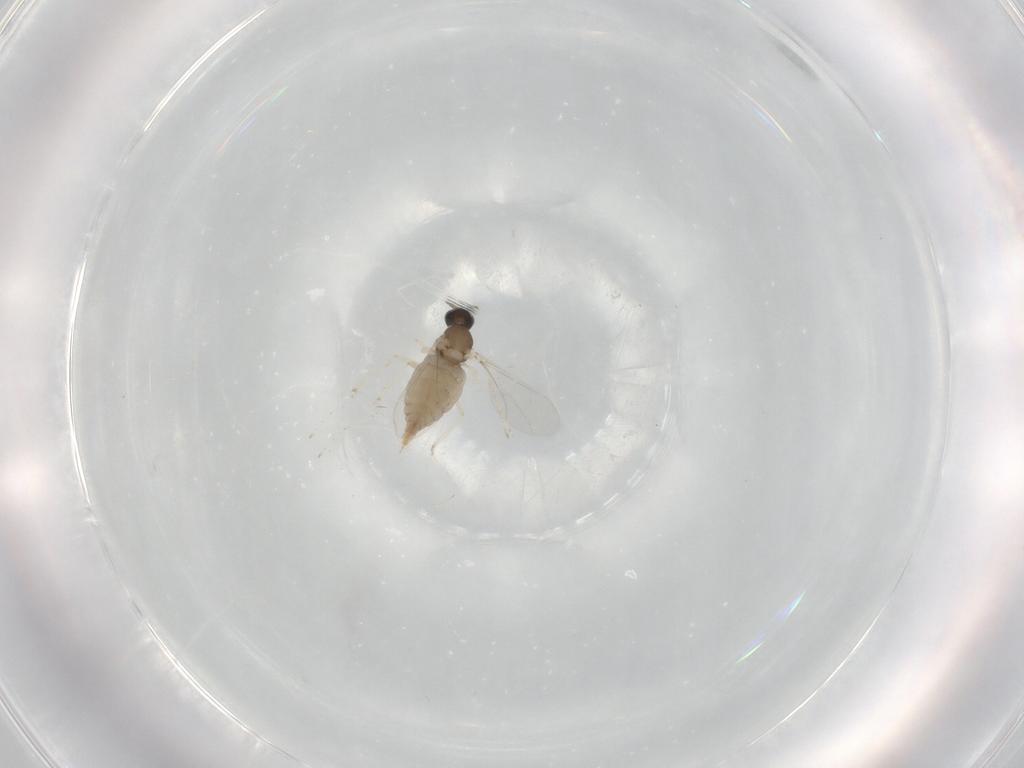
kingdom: Animalia
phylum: Arthropoda
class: Insecta
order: Diptera
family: Cecidomyiidae
